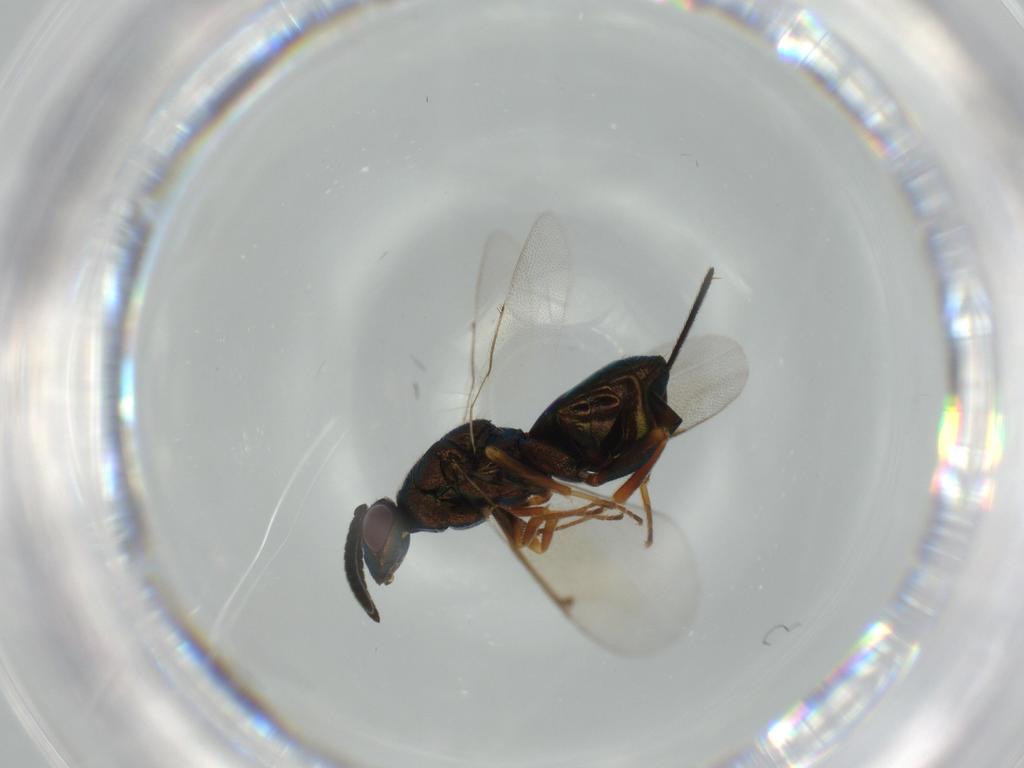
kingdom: Animalia
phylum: Arthropoda
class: Insecta
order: Hymenoptera
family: Torymidae
